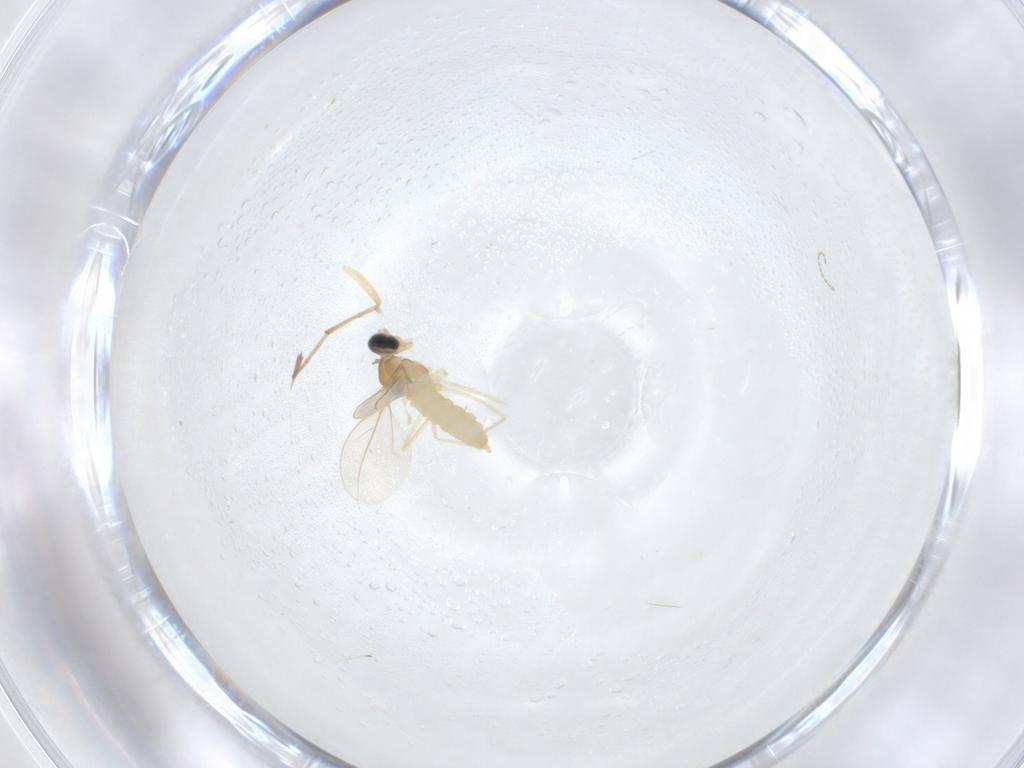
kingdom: Animalia
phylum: Arthropoda
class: Insecta
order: Diptera
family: Cecidomyiidae
